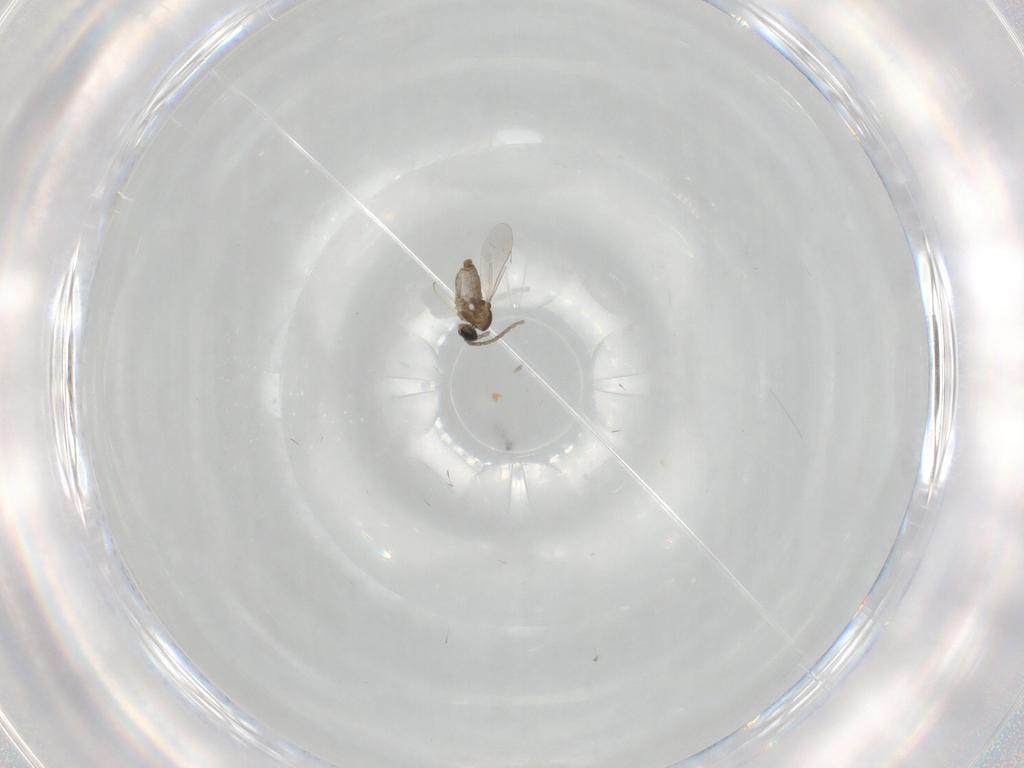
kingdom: Animalia
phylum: Arthropoda
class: Insecta
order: Diptera
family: Cecidomyiidae
